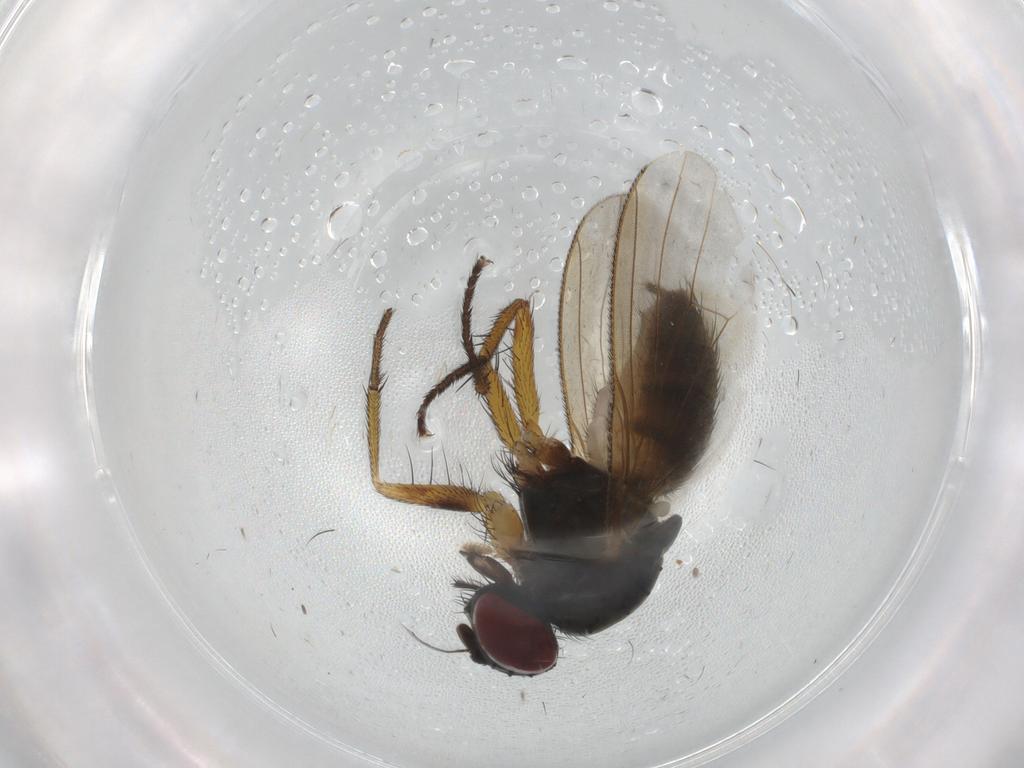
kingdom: Animalia
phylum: Arthropoda
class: Insecta
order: Diptera
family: Muscidae
